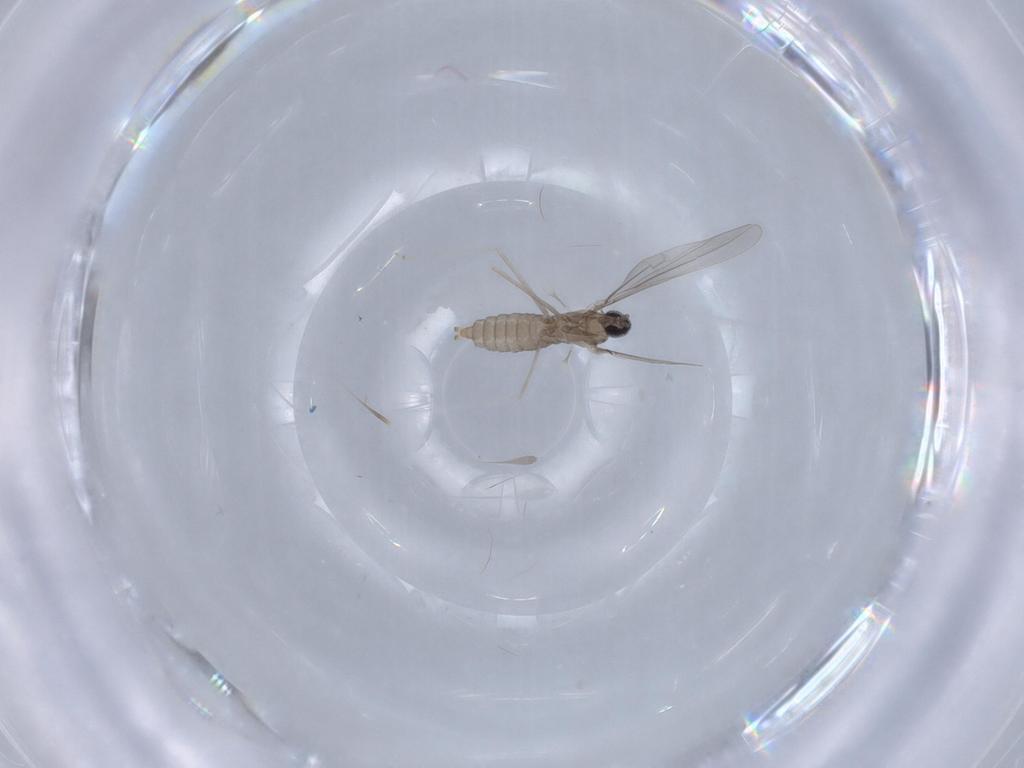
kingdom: Animalia
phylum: Arthropoda
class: Insecta
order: Diptera
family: Cecidomyiidae
